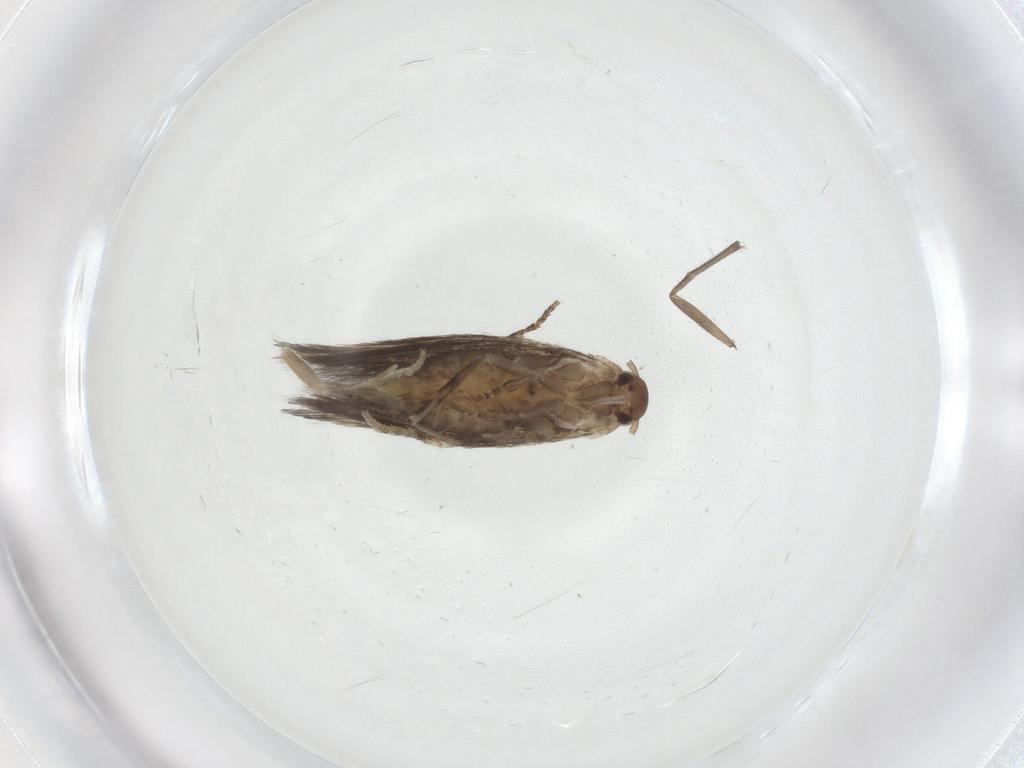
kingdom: Animalia
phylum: Arthropoda
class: Insecta
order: Lepidoptera
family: Elachistidae
